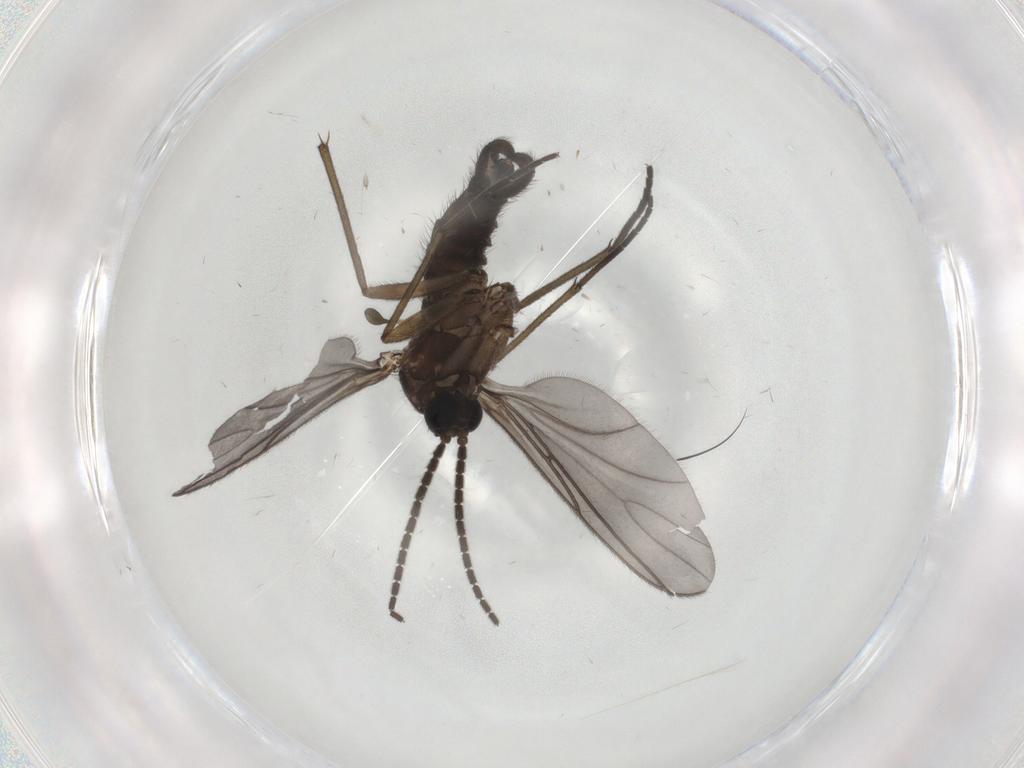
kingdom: Animalia
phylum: Arthropoda
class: Insecta
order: Diptera
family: Sciaridae
